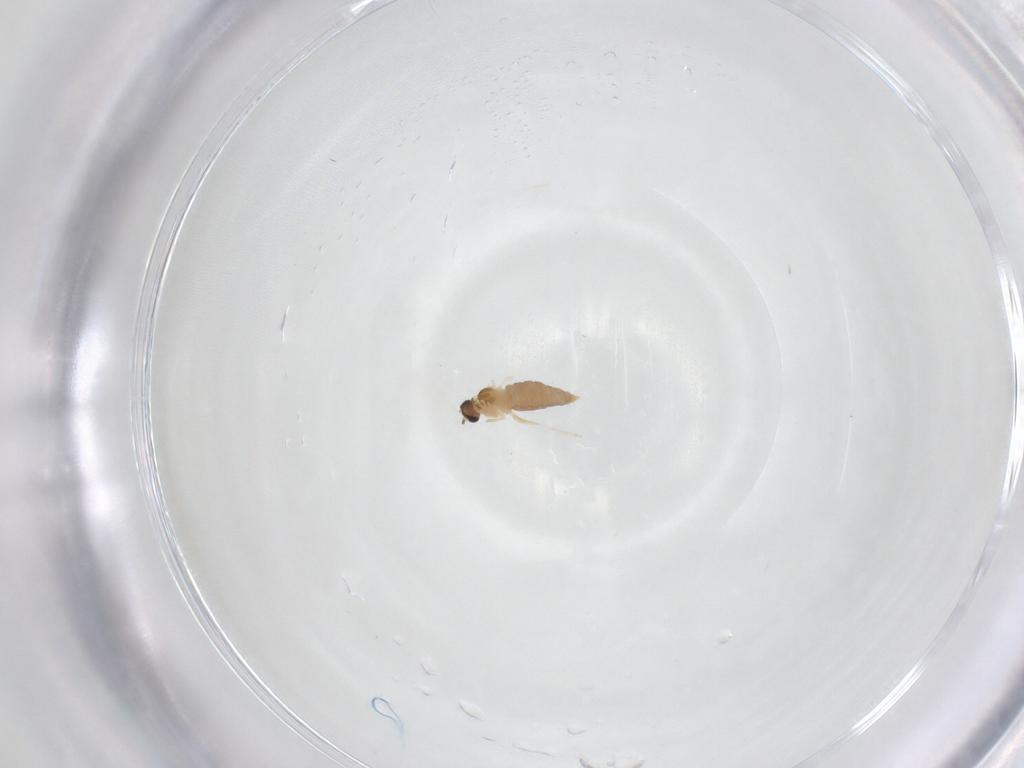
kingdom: Animalia
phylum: Arthropoda
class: Insecta
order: Diptera
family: Cecidomyiidae
